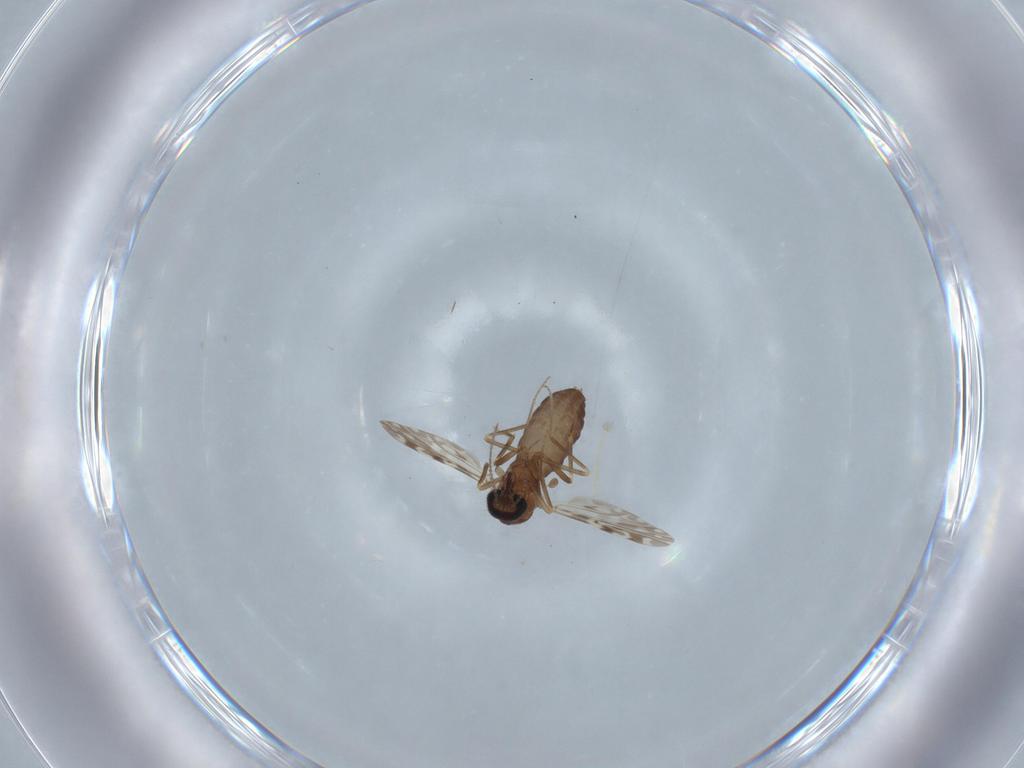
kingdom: Animalia
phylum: Arthropoda
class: Insecta
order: Diptera
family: Ceratopogonidae
